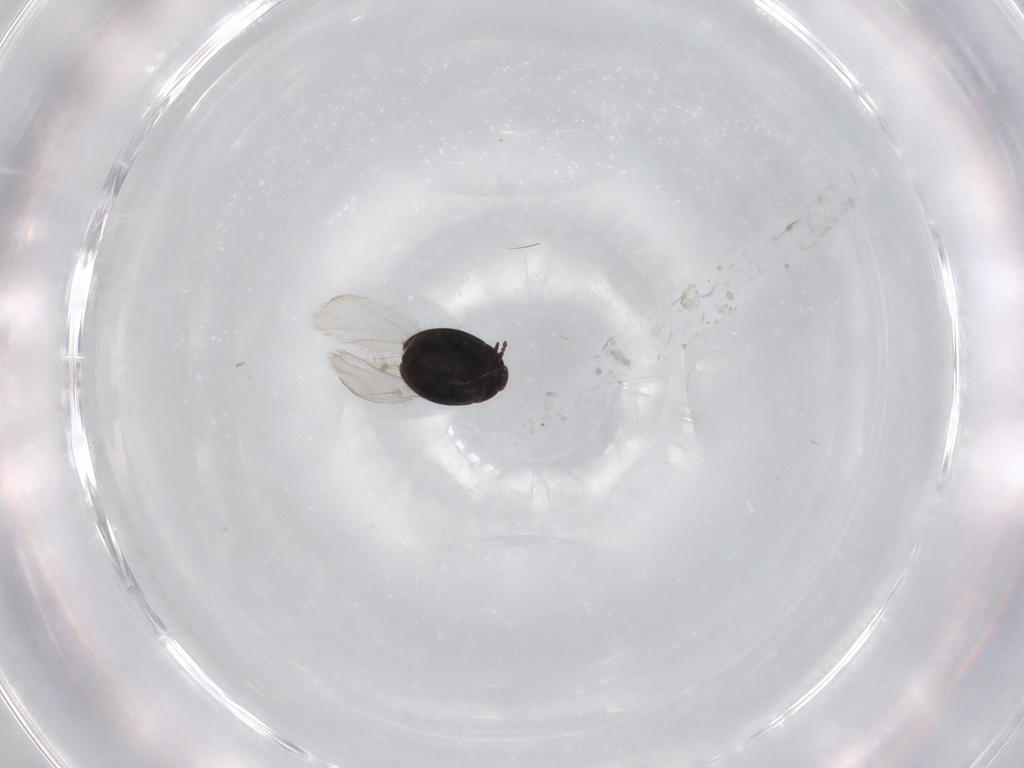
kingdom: Animalia
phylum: Arthropoda
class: Insecta
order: Coleoptera
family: Corylophidae
